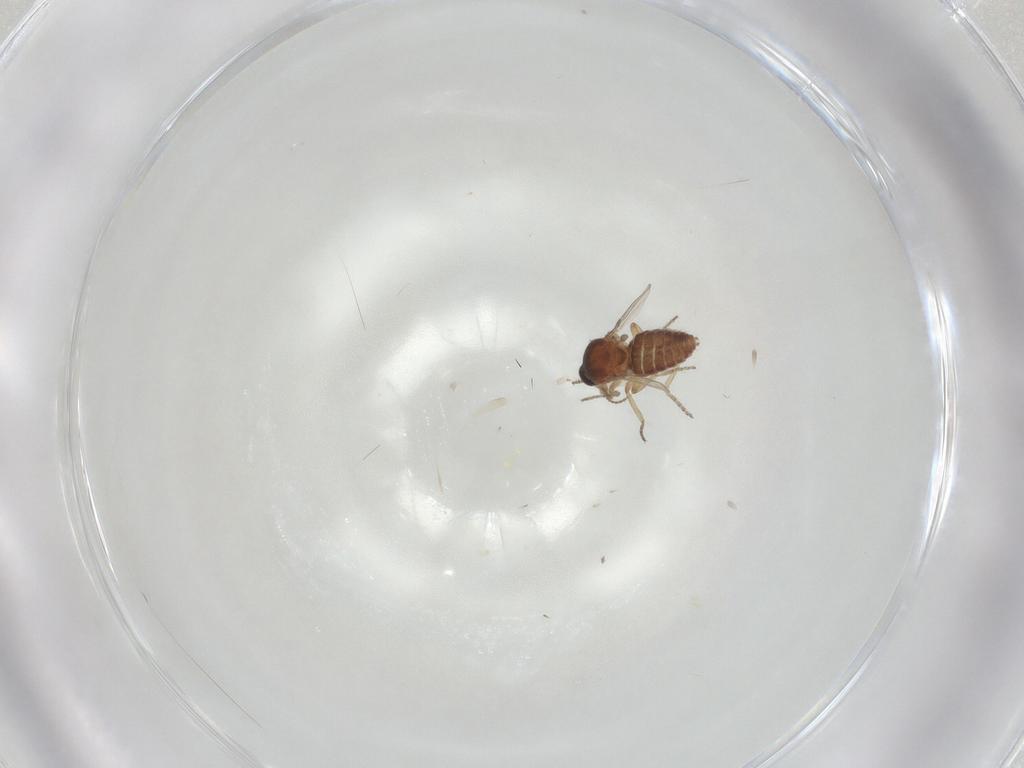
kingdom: Animalia
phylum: Arthropoda
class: Insecta
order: Diptera
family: Ceratopogonidae
